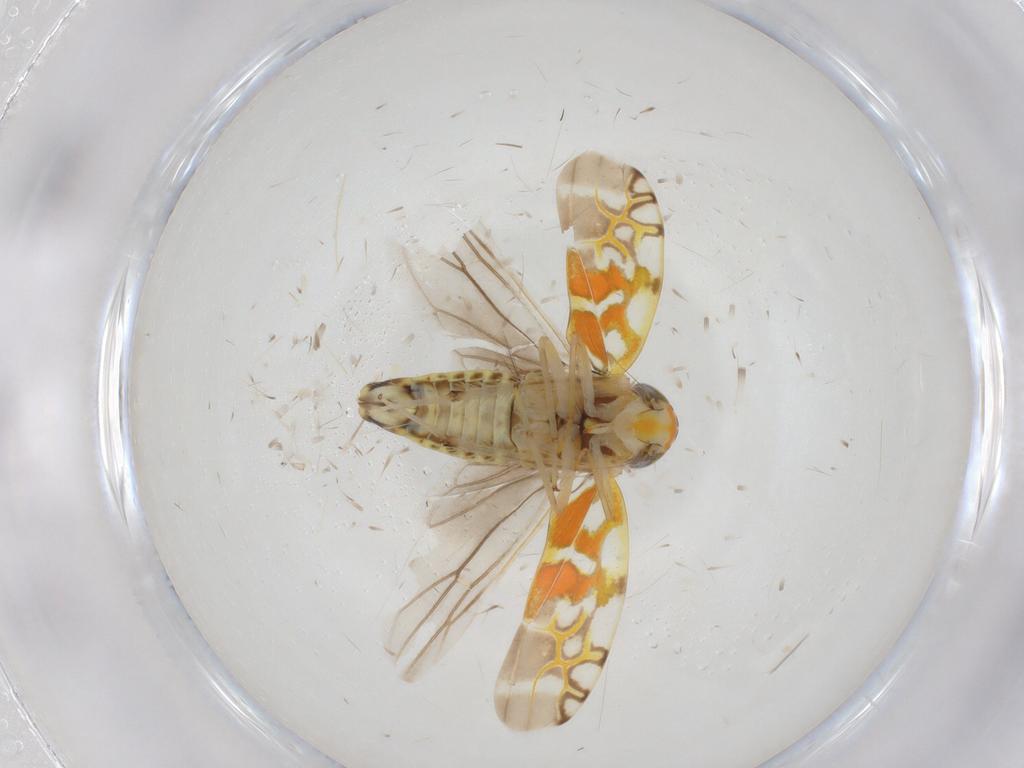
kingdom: Animalia
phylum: Arthropoda
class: Insecta
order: Hemiptera
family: Cicadellidae
